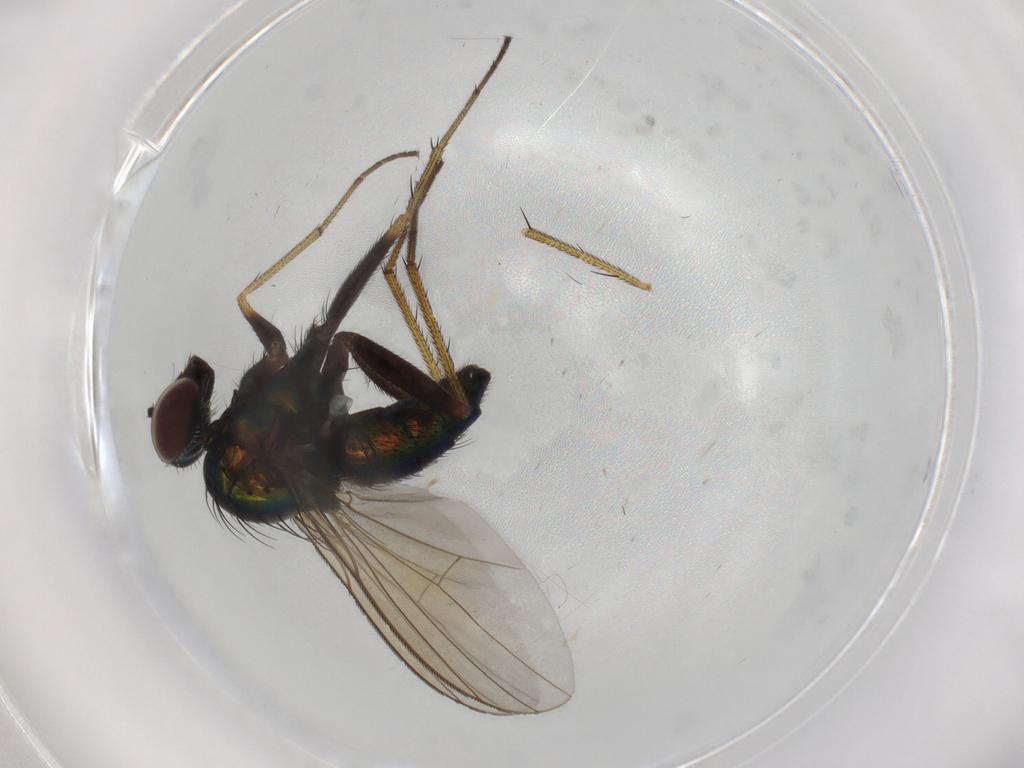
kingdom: Animalia
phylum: Arthropoda
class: Insecta
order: Diptera
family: Dolichopodidae
